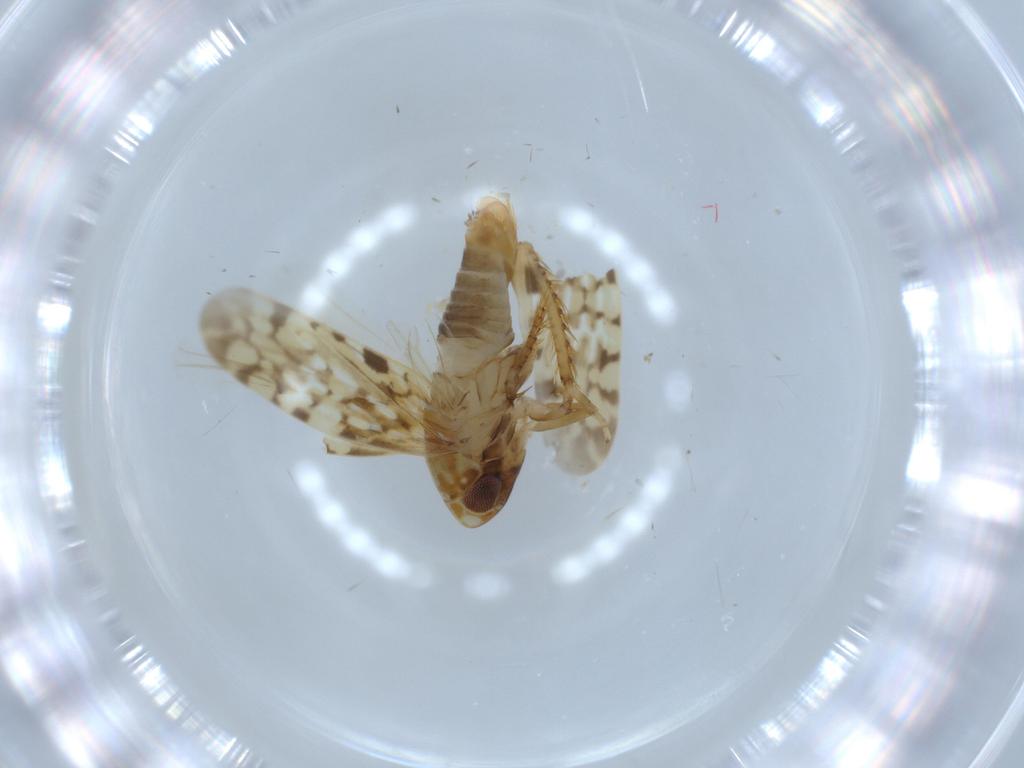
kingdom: Animalia
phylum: Arthropoda
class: Insecta
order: Hemiptera
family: Cicadellidae
